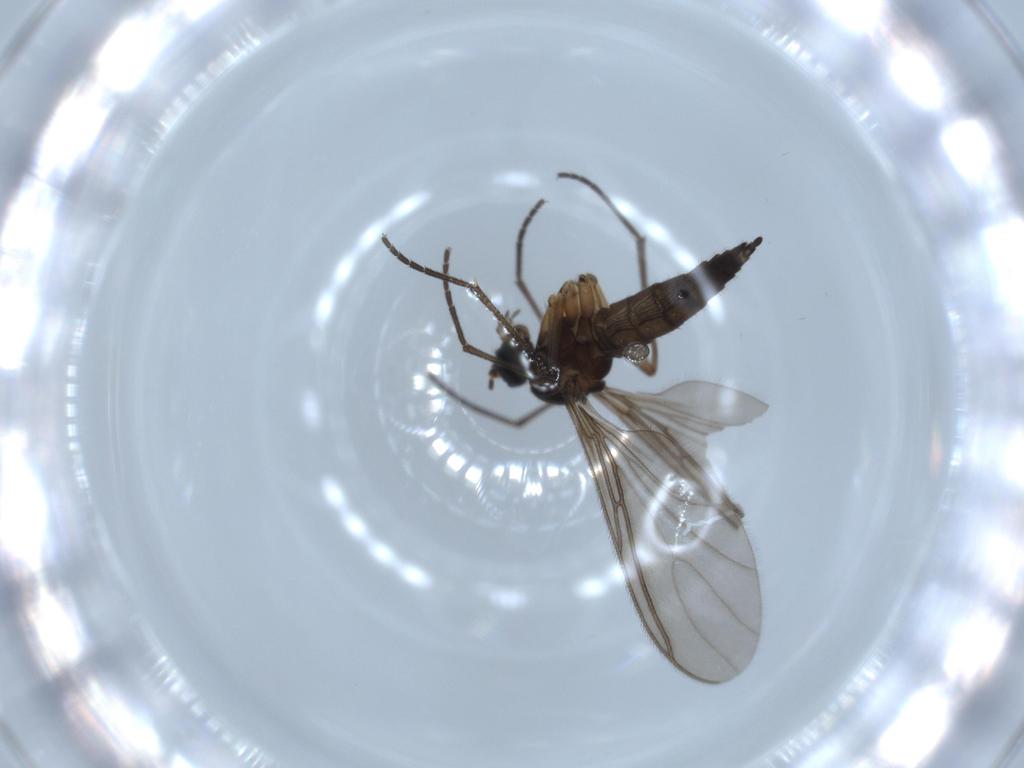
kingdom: Animalia
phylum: Arthropoda
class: Insecta
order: Diptera
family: Sciaridae
